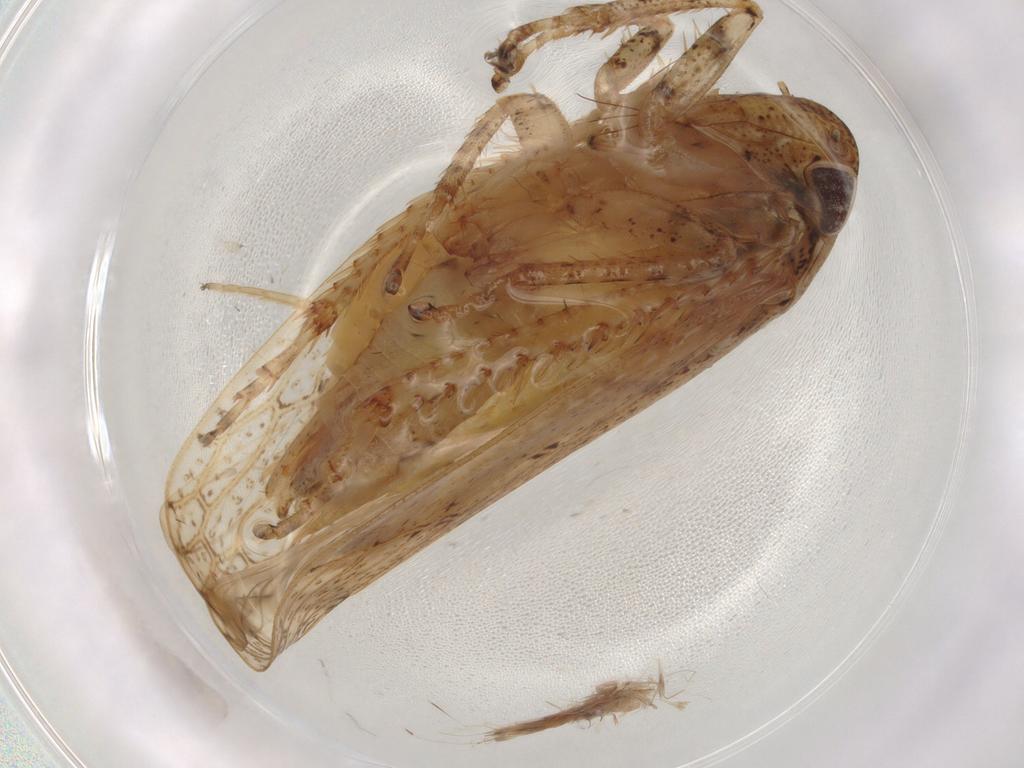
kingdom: Animalia
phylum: Arthropoda
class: Insecta
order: Hemiptera
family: Cicadellidae
